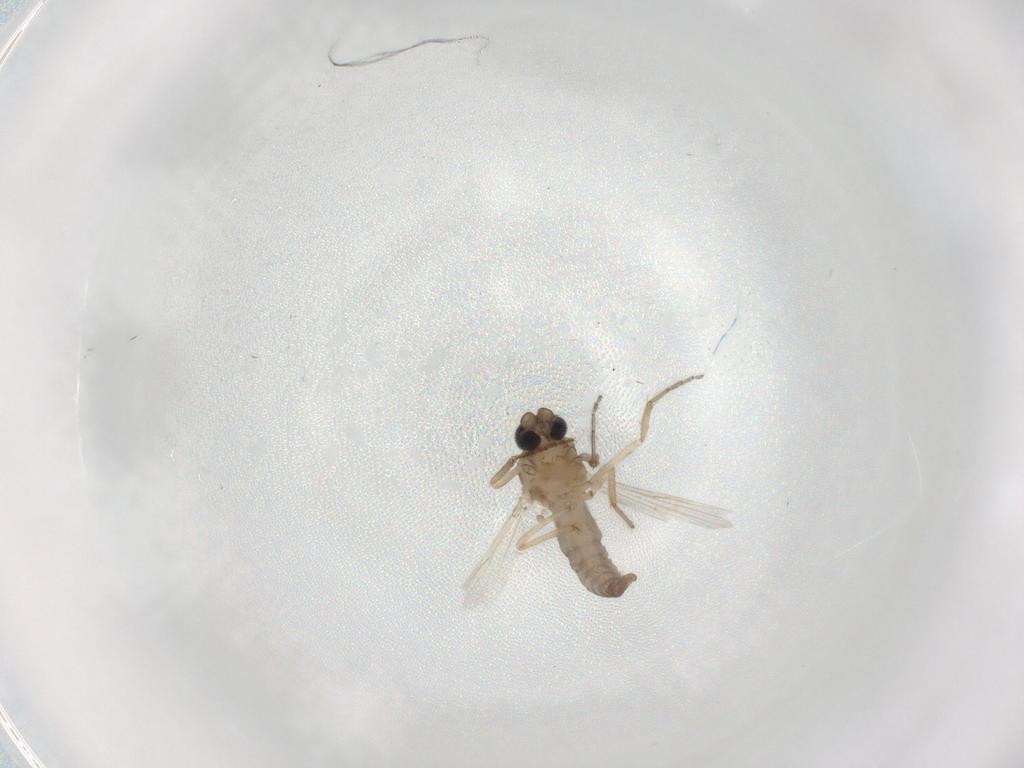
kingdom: Animalia
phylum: Arthropoda
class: Insecta
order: Diptera
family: Ceratopogonidae
